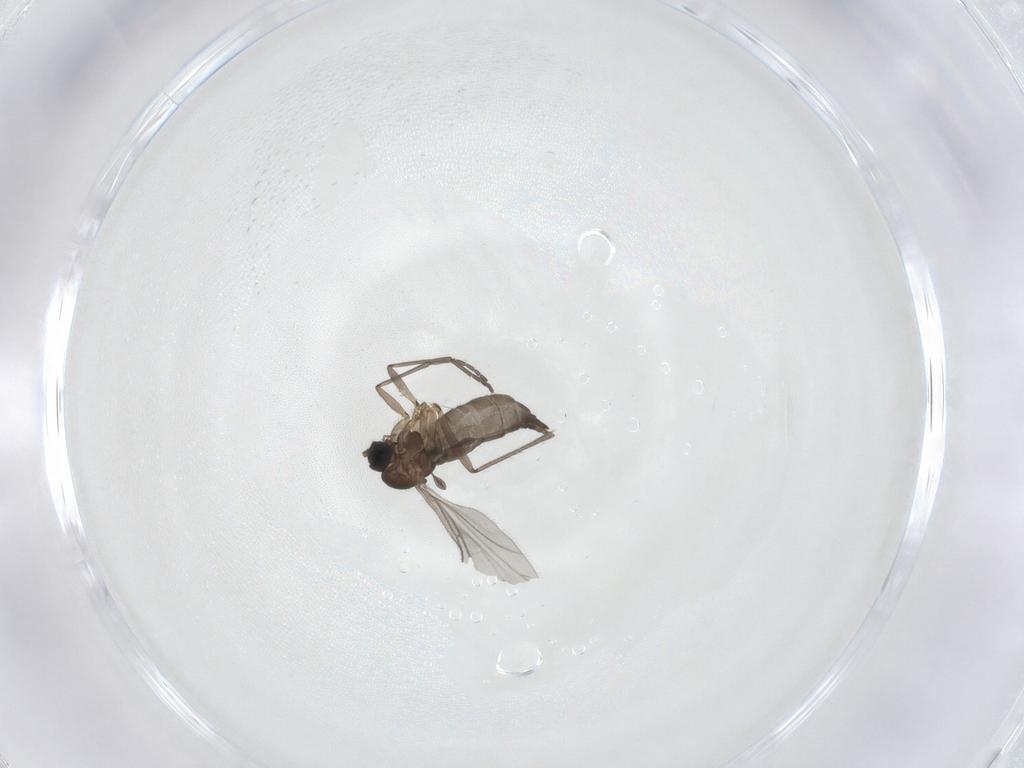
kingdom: Animalia
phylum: Arthropoda
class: Insecta
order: Diptera
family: Sciaridae
